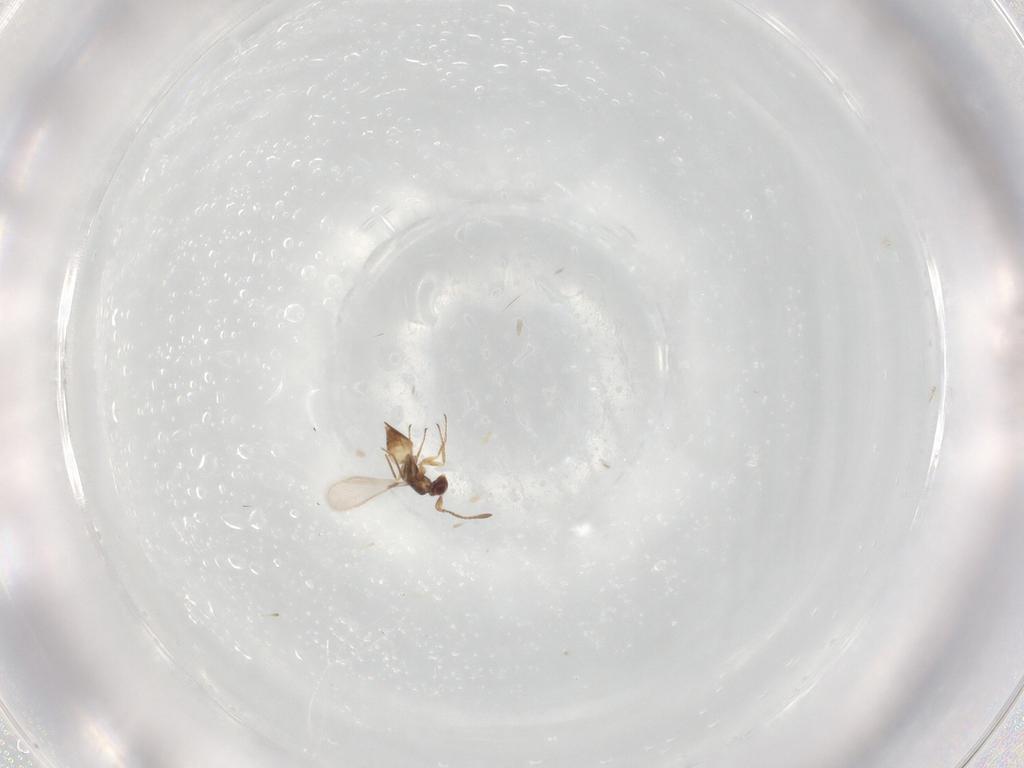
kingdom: Animalia
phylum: Arthropoda
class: Insecta
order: Hymenoptera
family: Mymaridae
